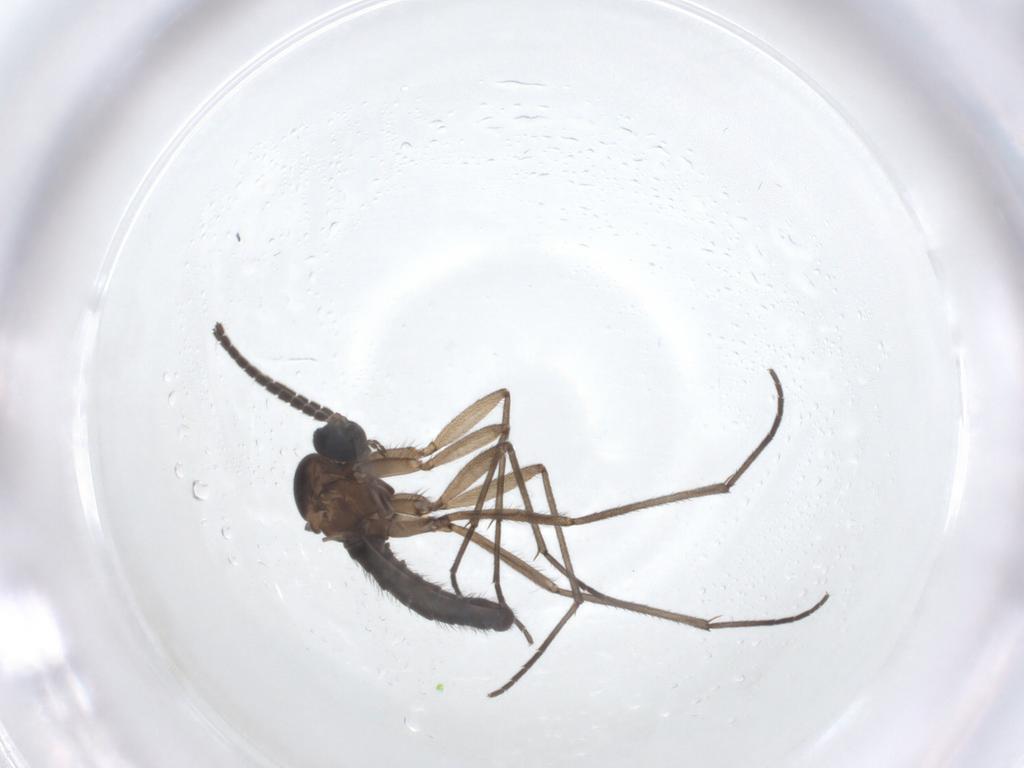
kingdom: Animalia
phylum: Arthropoda
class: Insecta
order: Diptera
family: Sciaridae
